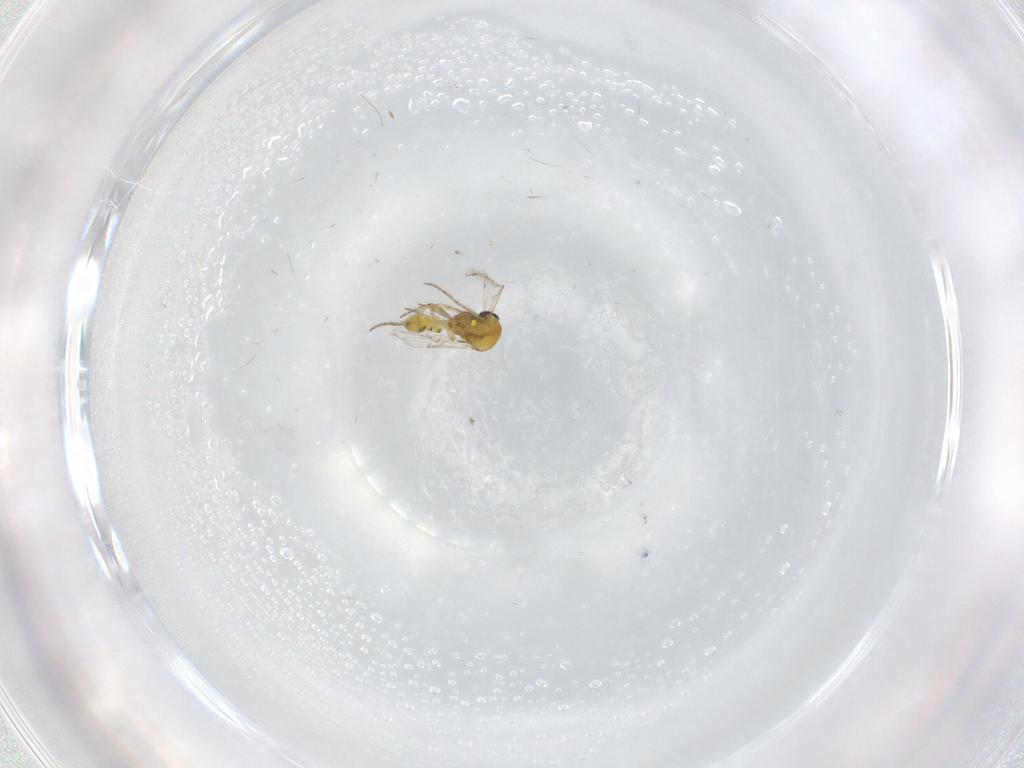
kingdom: Animalia
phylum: Arthropoda
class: Insecta
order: Diptera
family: Ceratopogonidae
